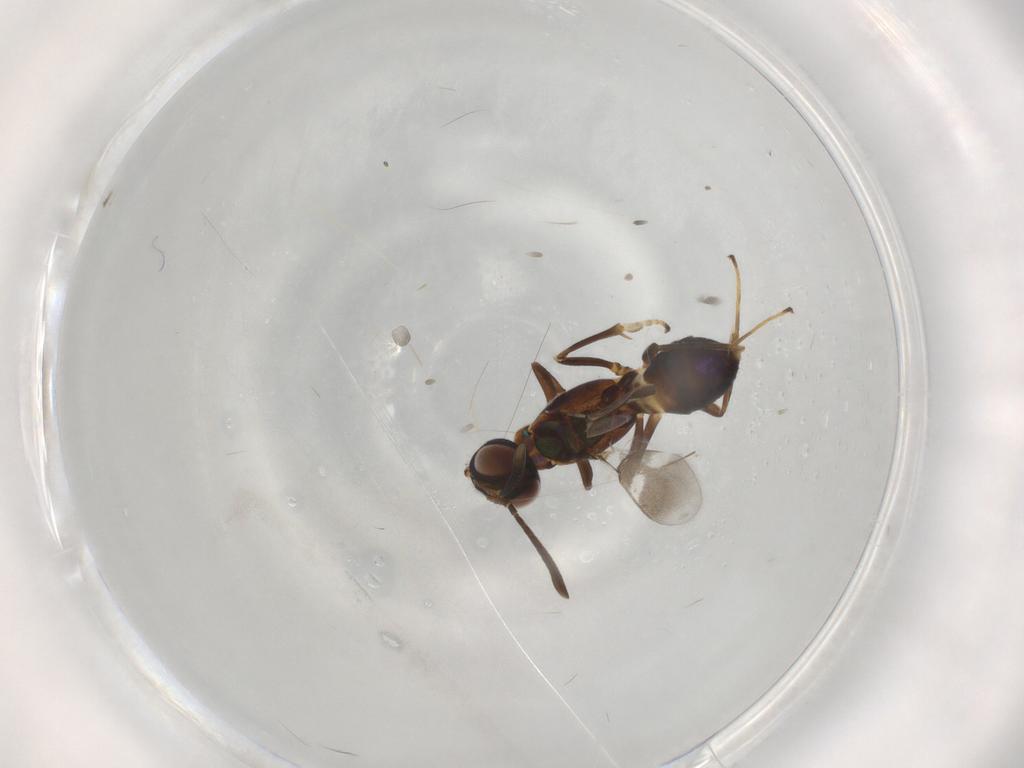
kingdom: Animalia
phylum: Arthropoda
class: Insecta
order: Hymenoptera
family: Eupelmidae
